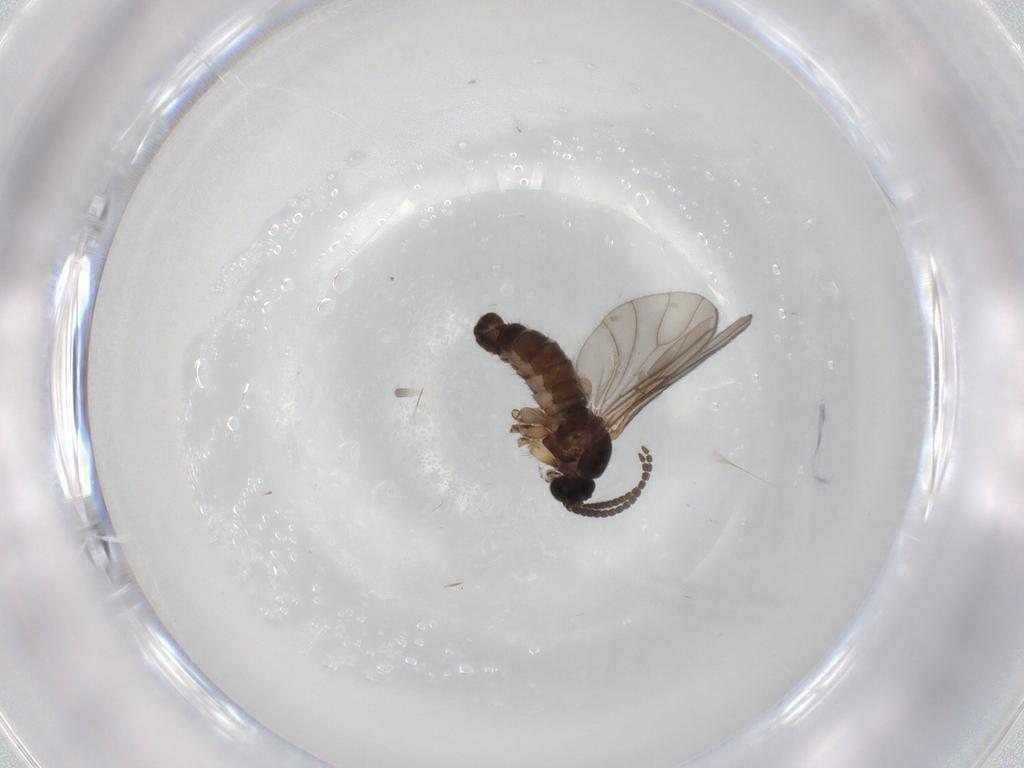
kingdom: Animalia
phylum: Arthropoda
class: Insecta
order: Diptera
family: Sciaridae
